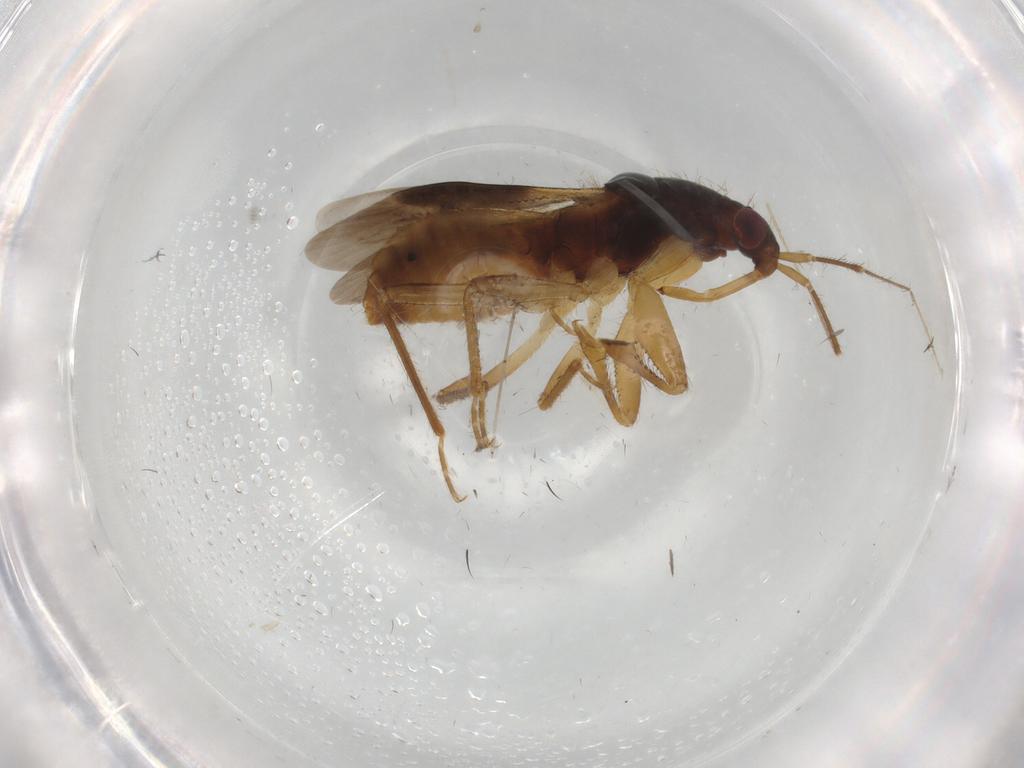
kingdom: Animalia
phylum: Arthropoda
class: Insecta
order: Hemiptera
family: Nabidae
